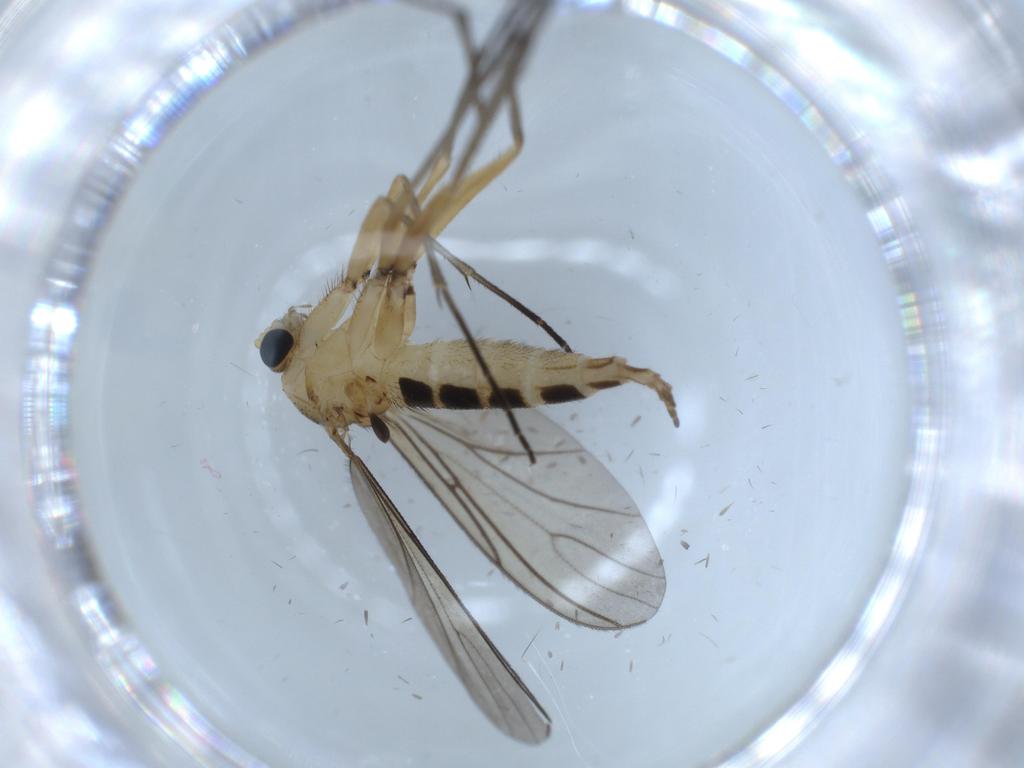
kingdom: Animalia
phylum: Arthropoda
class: Insecta
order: Diptera
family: Sciaridae
